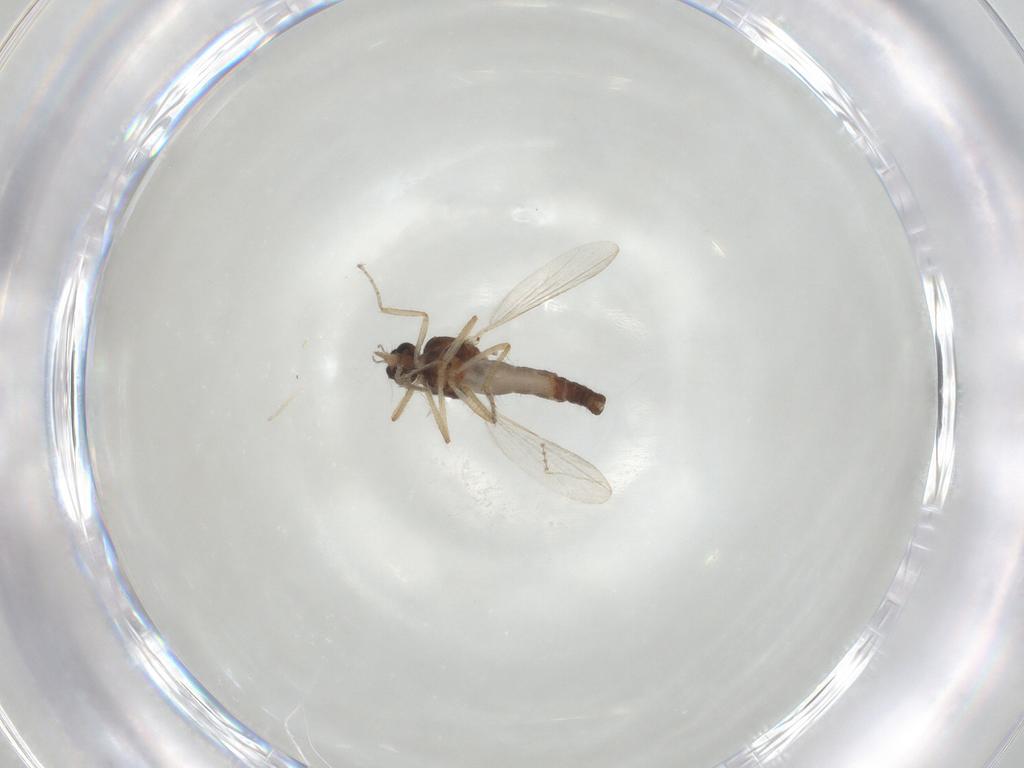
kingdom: Animalia
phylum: Arthropoda
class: Insecta
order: Diptera
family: Ceratopogonidae
